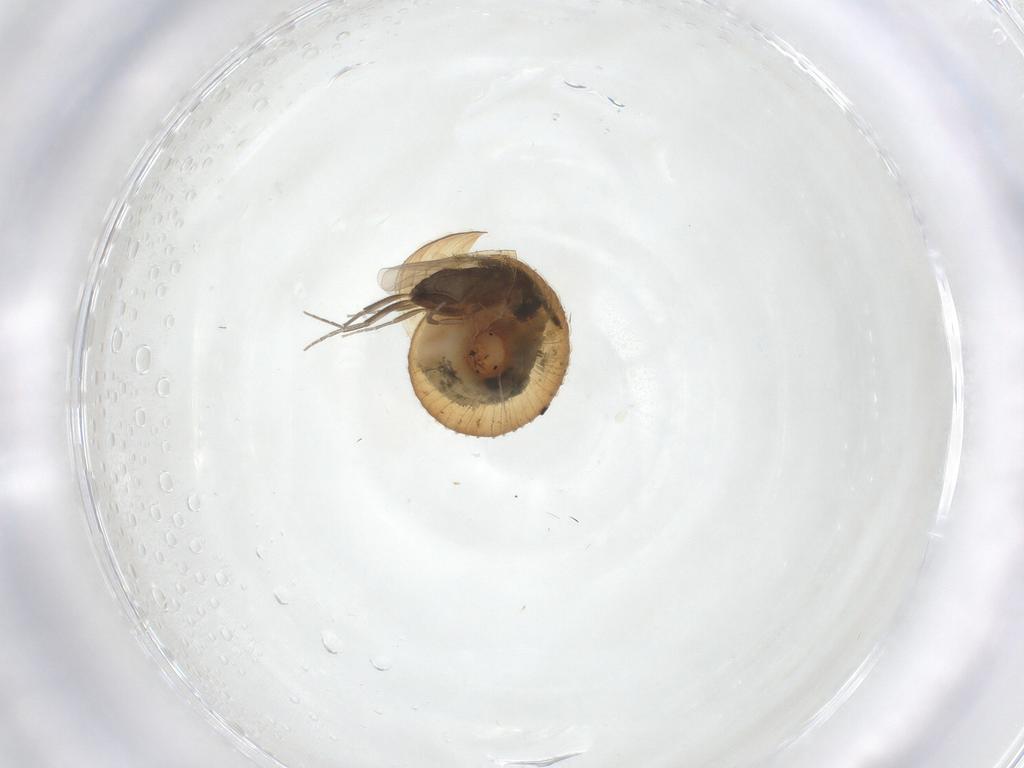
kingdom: Animalia
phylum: Arthropoda
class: Insecta
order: Diptera
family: Phoridae
